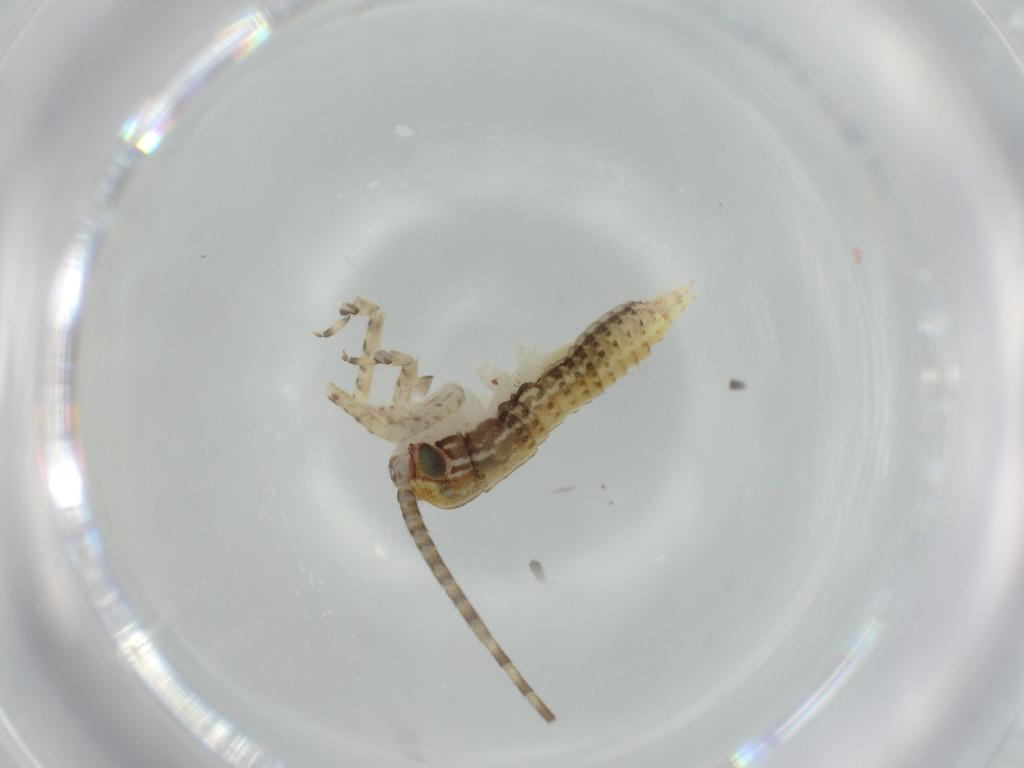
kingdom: Animalia
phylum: Arthropoda
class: Insecta
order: Orthoptera
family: Gryllidae
